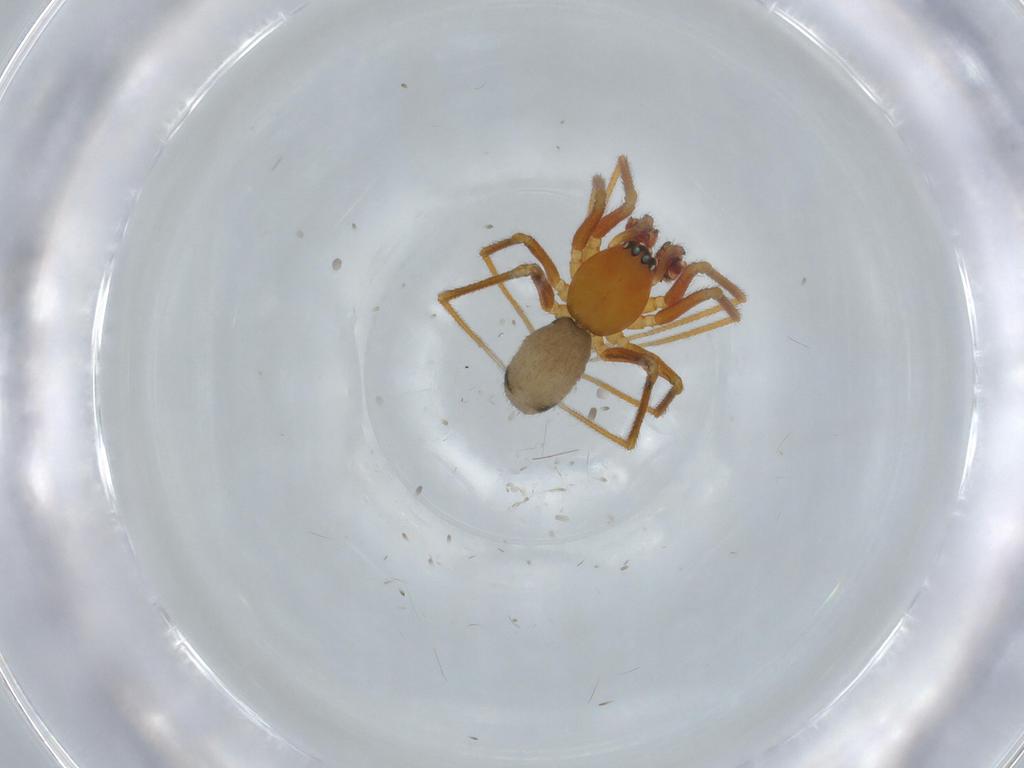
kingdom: Animalia
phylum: Arthropoda
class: Arachnida
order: Araneae
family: Linyphiidae
